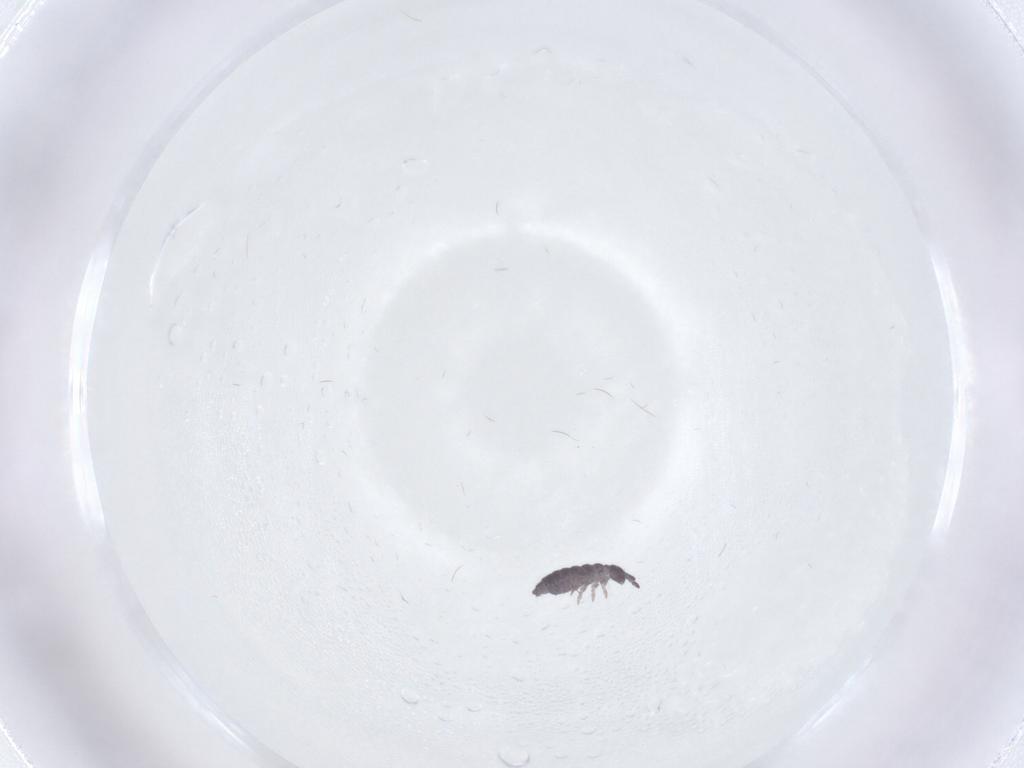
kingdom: Animalia
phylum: Arthropoda
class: Collembola
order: Poduromorpha
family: Hypogastruridae
